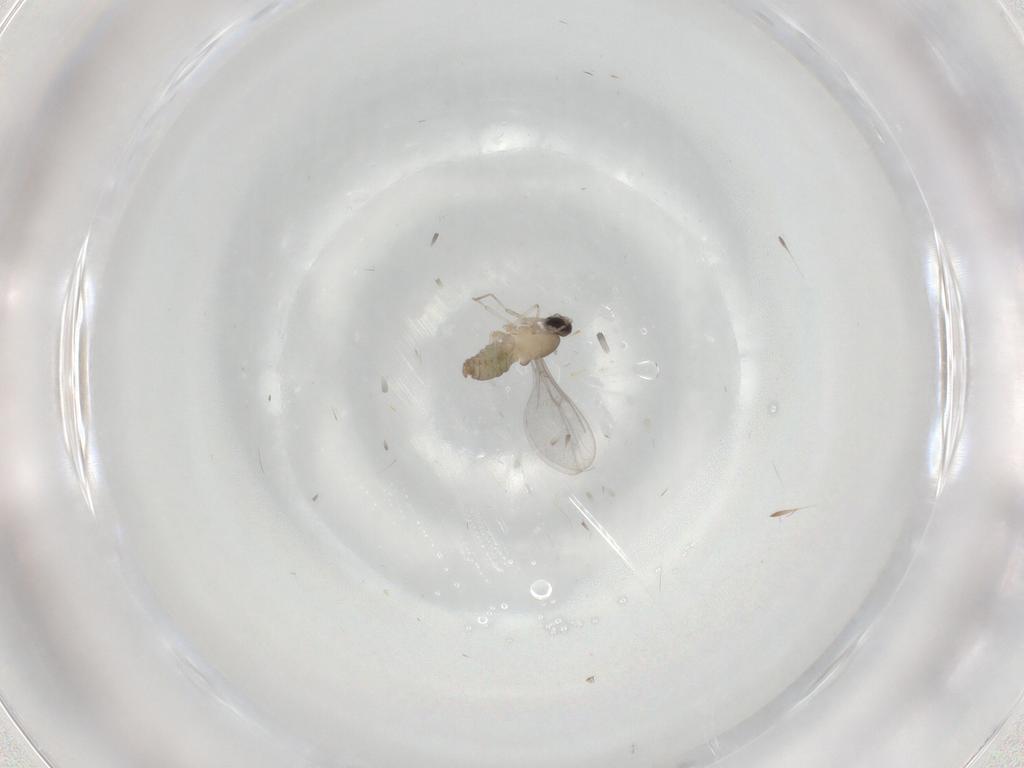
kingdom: Animalia
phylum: Arthropoda
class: Insecta
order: Diptera
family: Cecidomyiidae
